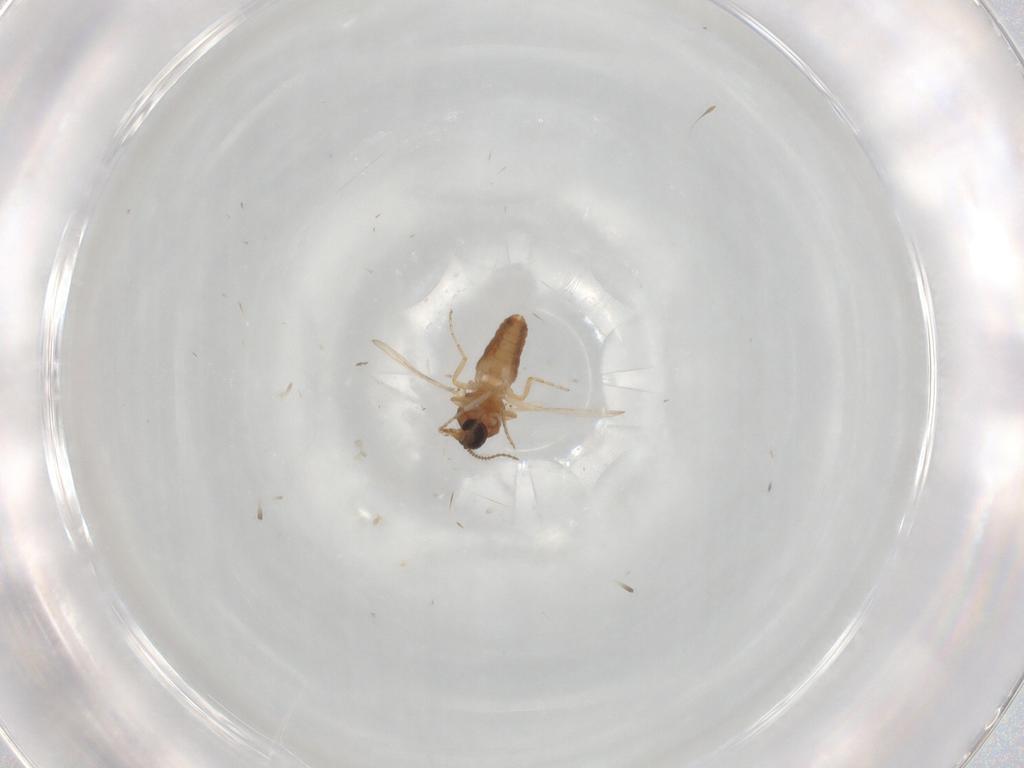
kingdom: Animalia
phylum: Arthropoda
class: Insecta
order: Diptera
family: Ceratopogonidae
